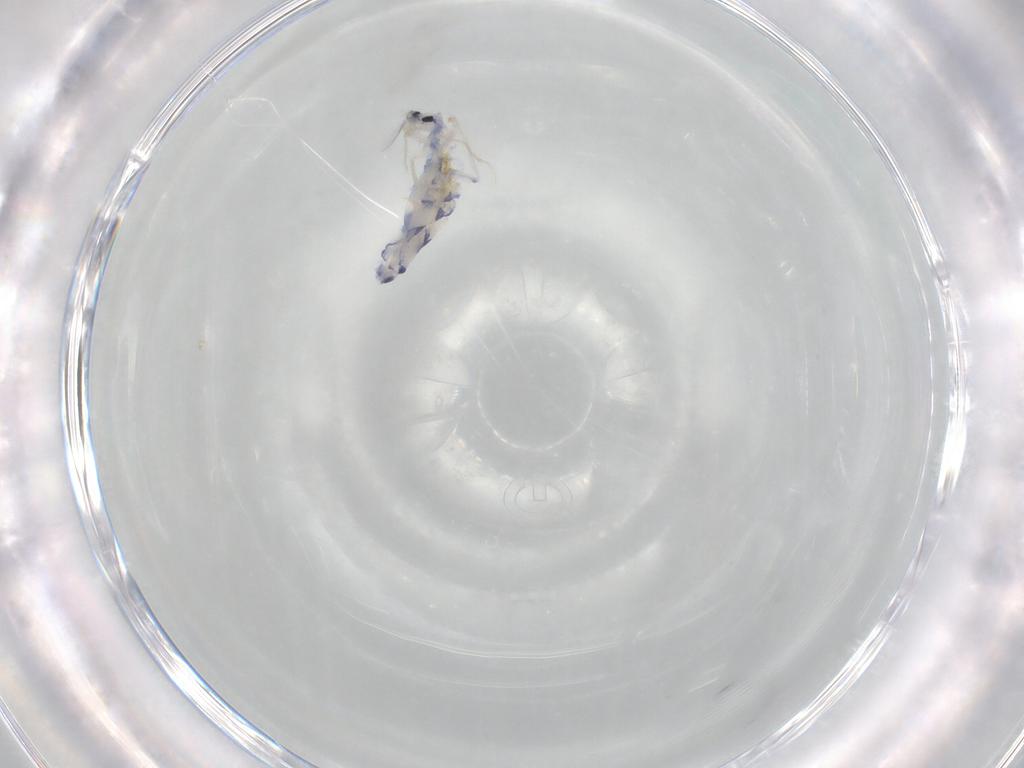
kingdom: Animalia
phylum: Arthropoda
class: Collembola
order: Entomobryomorpha
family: Entomobryidae
